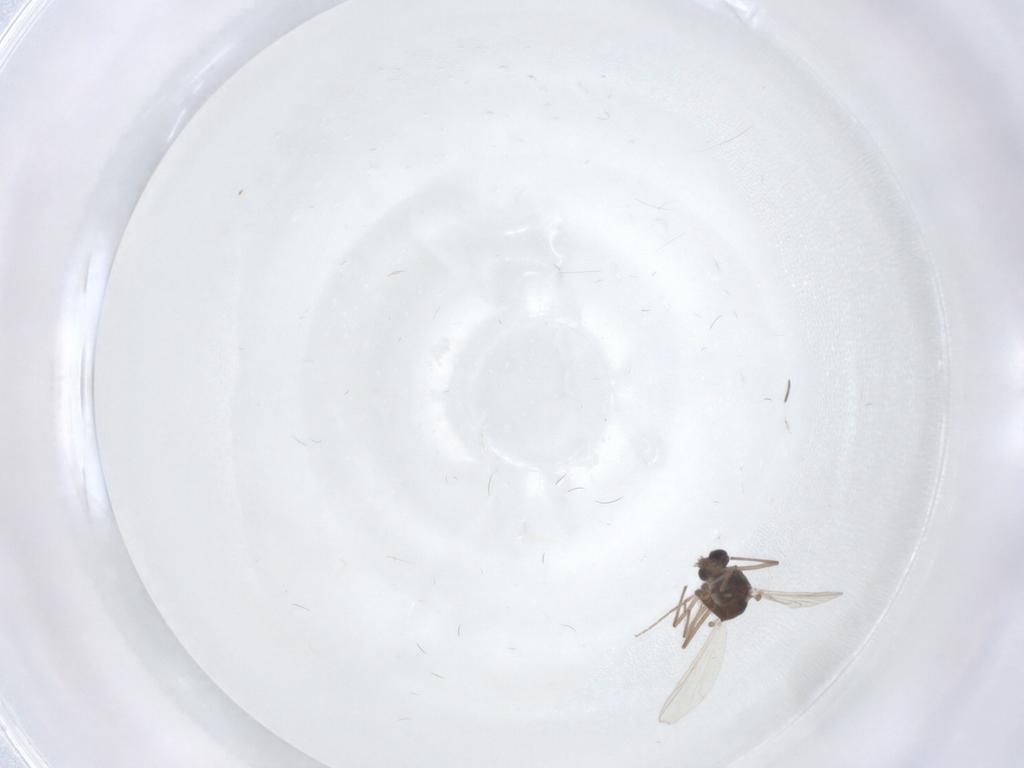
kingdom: Animalia
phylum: Arthropoda
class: Insecta
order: Diptera
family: Chironomidae
